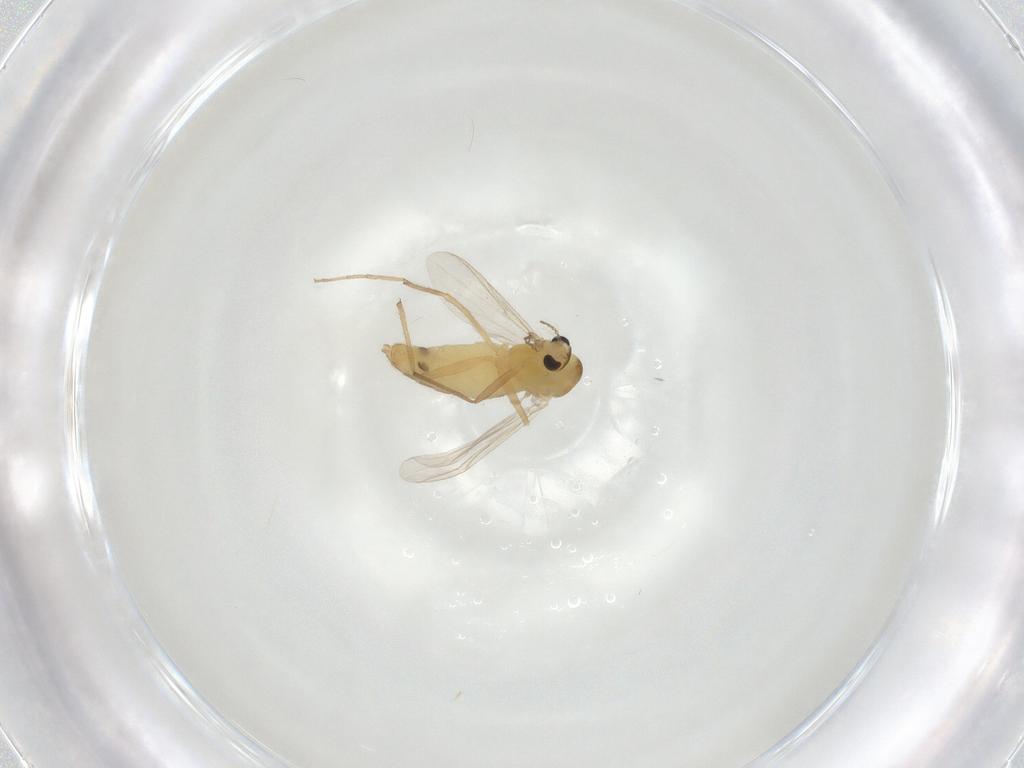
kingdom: Animalia
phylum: Arthropoda
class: Insecta
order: Diptera
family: Chironomidae
